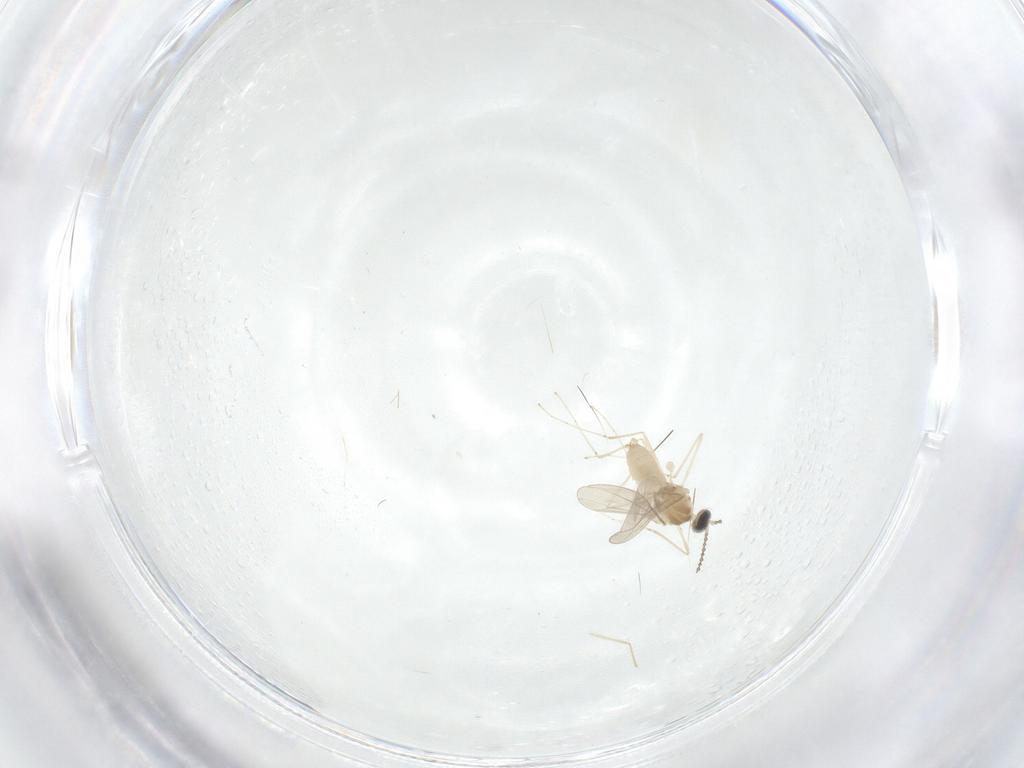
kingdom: Animalia
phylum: Arthropoda
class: Insecta
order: Diptera
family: Cecidomyiidae
